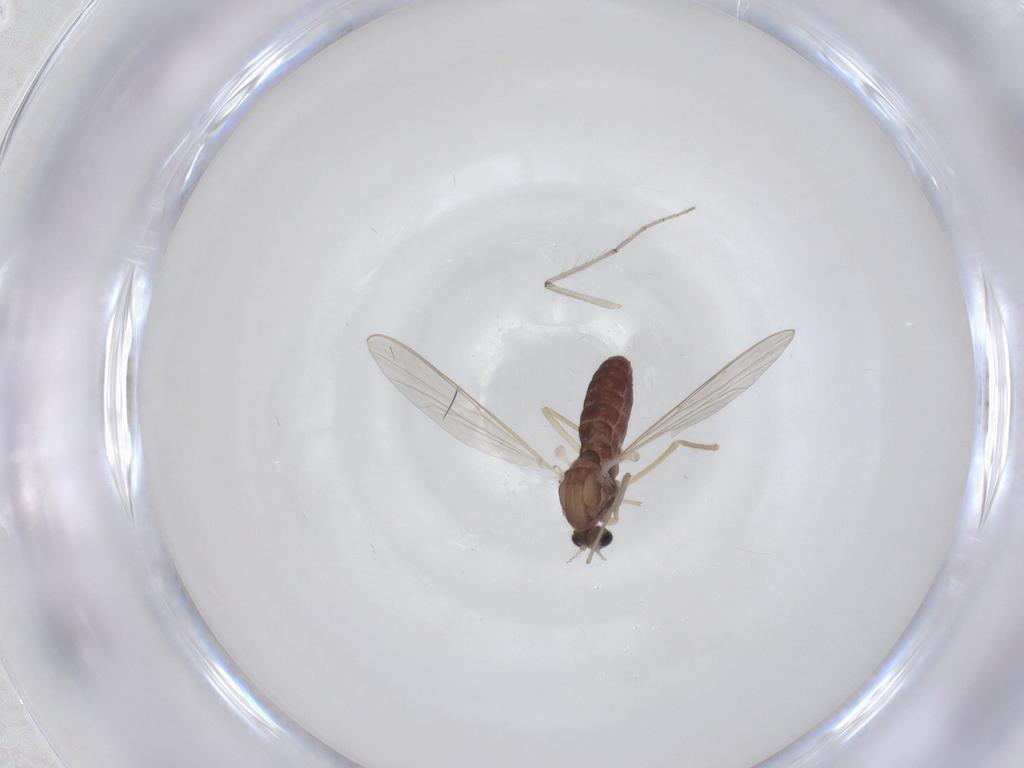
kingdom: Animalia
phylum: Arthropoda
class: Insecta
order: Diptera
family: Chironomidae
